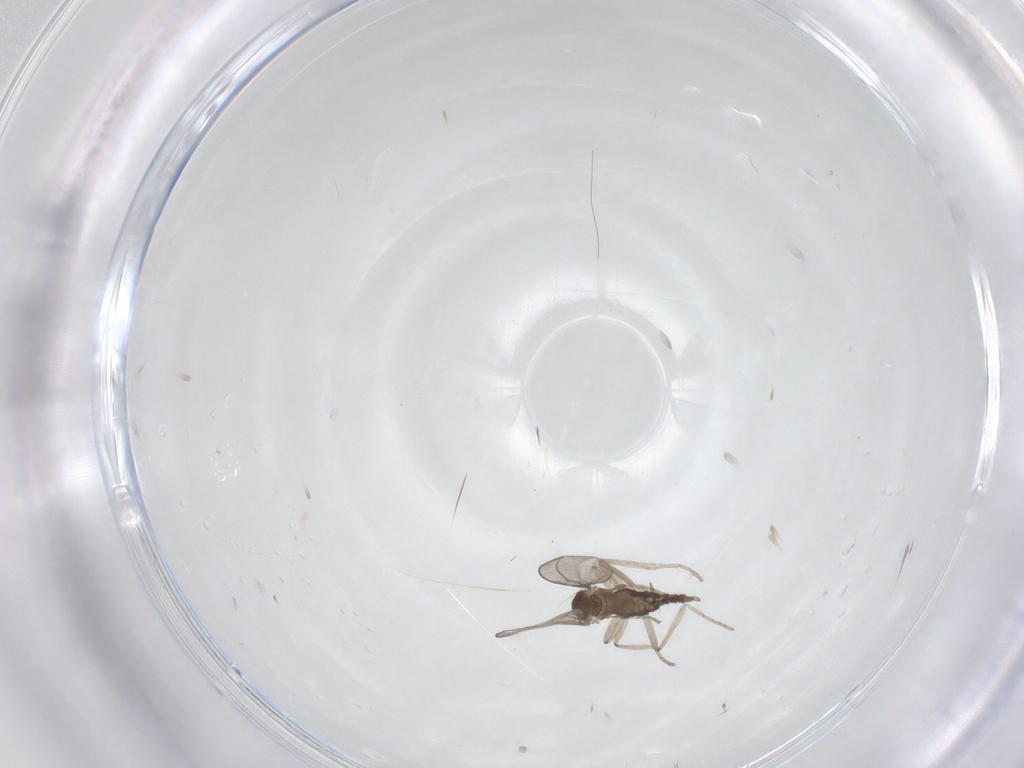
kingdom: Animalia
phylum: Arthropoda
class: Insecta
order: Diptera
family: Cecidomyiidae
